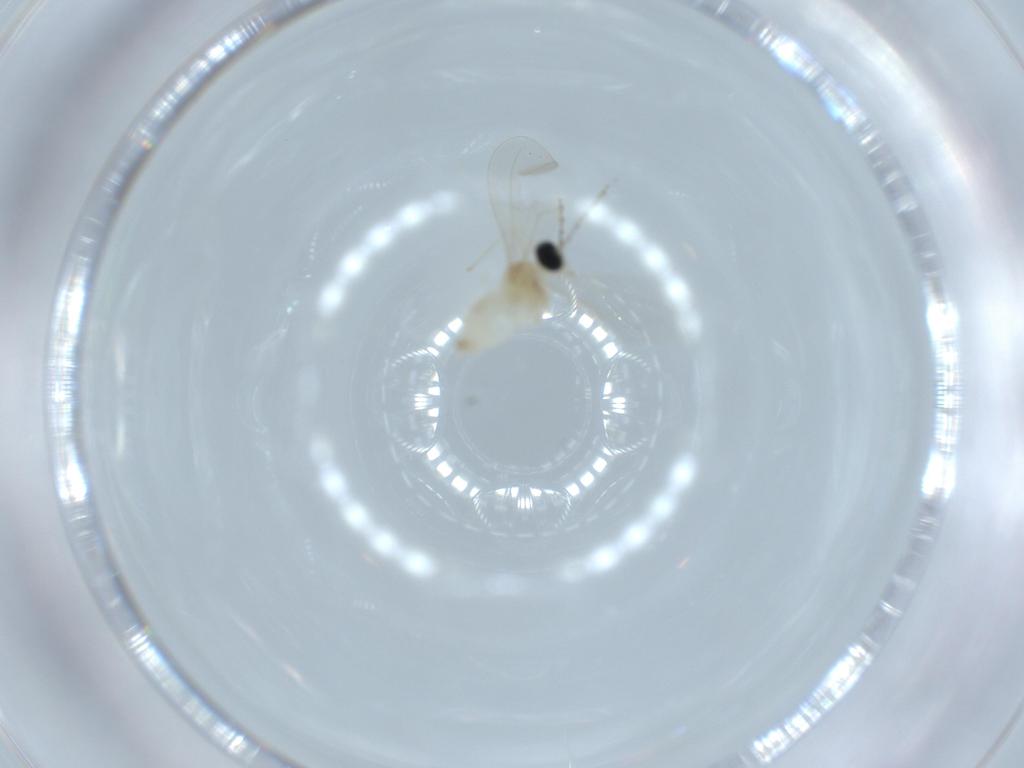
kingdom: Animalia
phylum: Arthropoda
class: Insecta
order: Diptera
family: Cecidomyiidae
